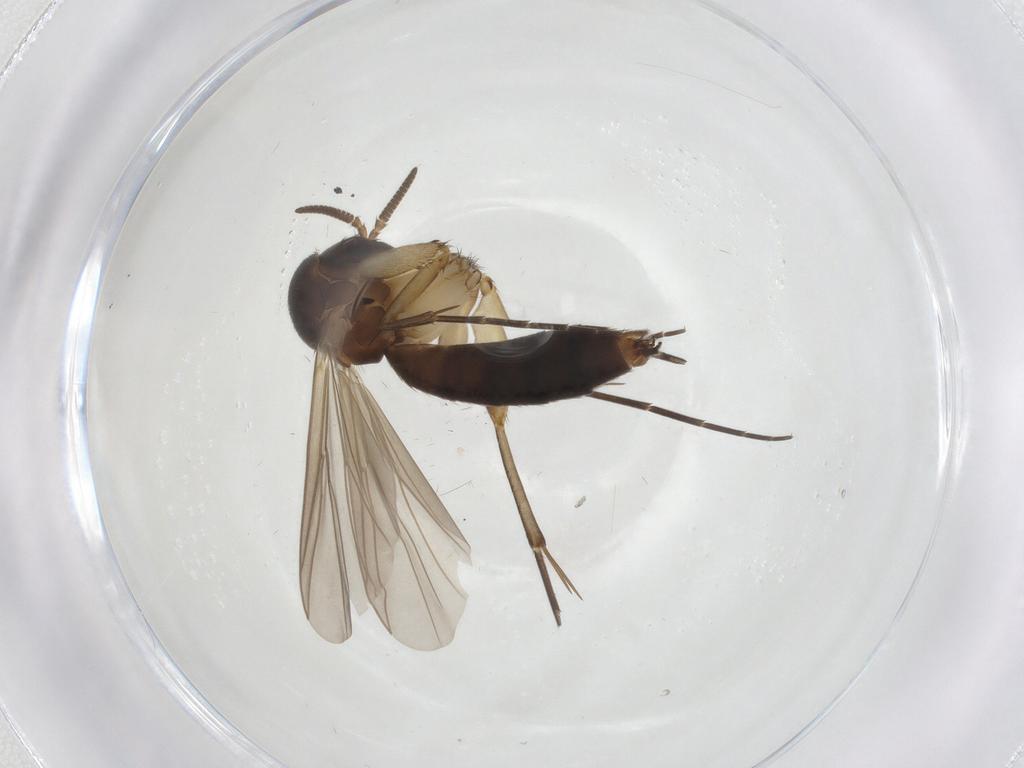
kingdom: Animalia
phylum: Arthropoda
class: Insecta
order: Diptera
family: Mycetophilidae
